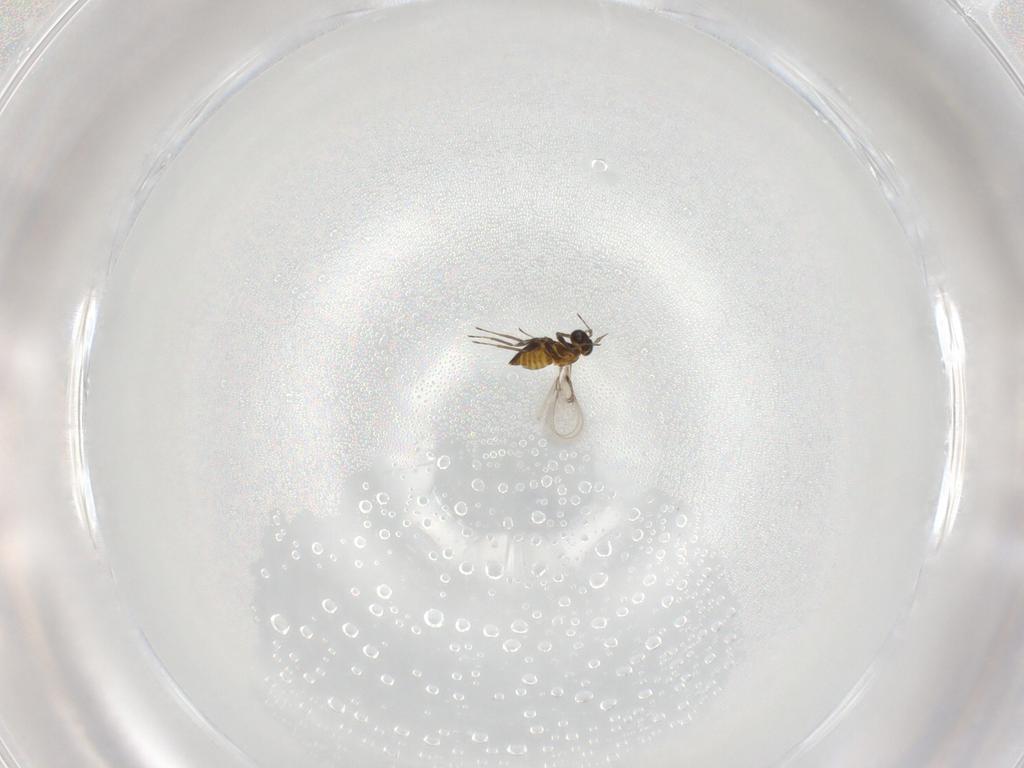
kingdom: Animalia
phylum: Arthropoda
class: Insecta
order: Hymenoptera
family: Trichogrammatidae
